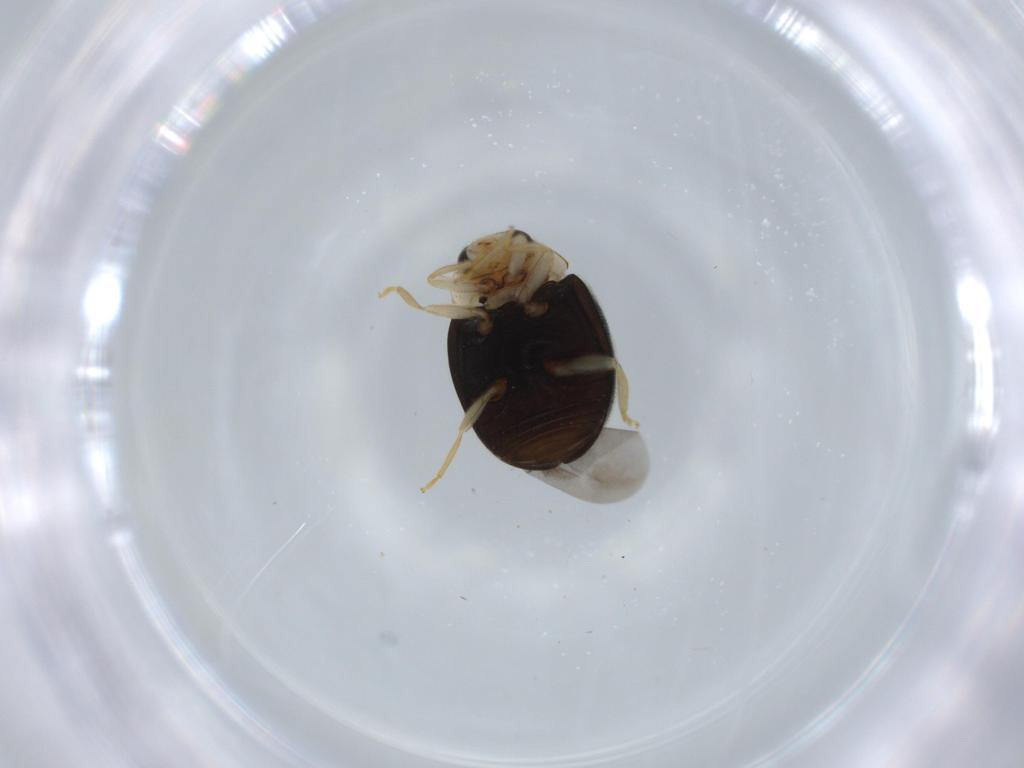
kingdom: Animalia
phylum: Arthropoda
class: Insecta
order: Coleoptera
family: Coccinellidae
